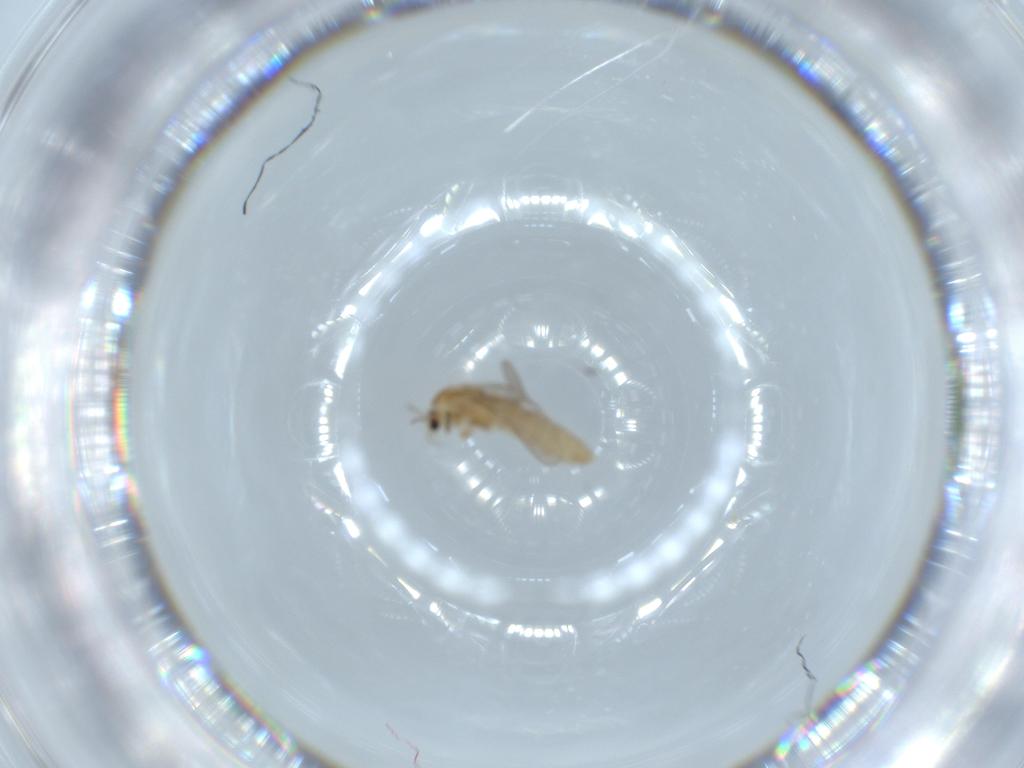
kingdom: Animalia
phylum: Arthropoda
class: Insecta
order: Diptera
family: Chironomidae
